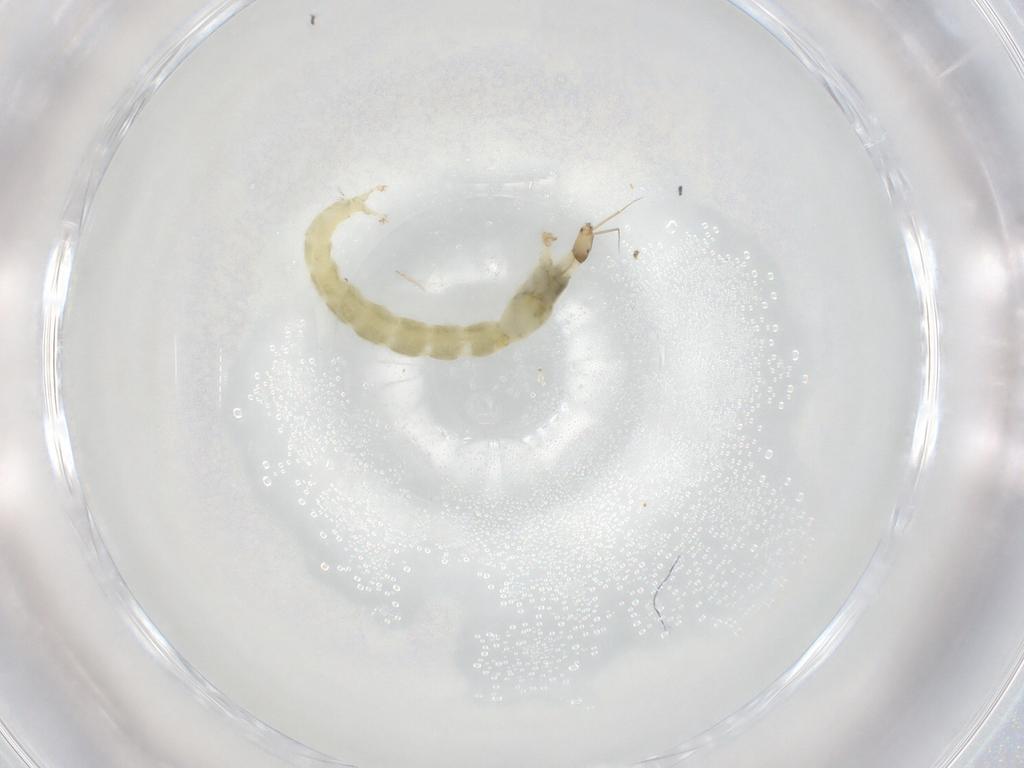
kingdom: Animalia
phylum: Arthropoda
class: Insecta
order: Diptera
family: Chironomidae
